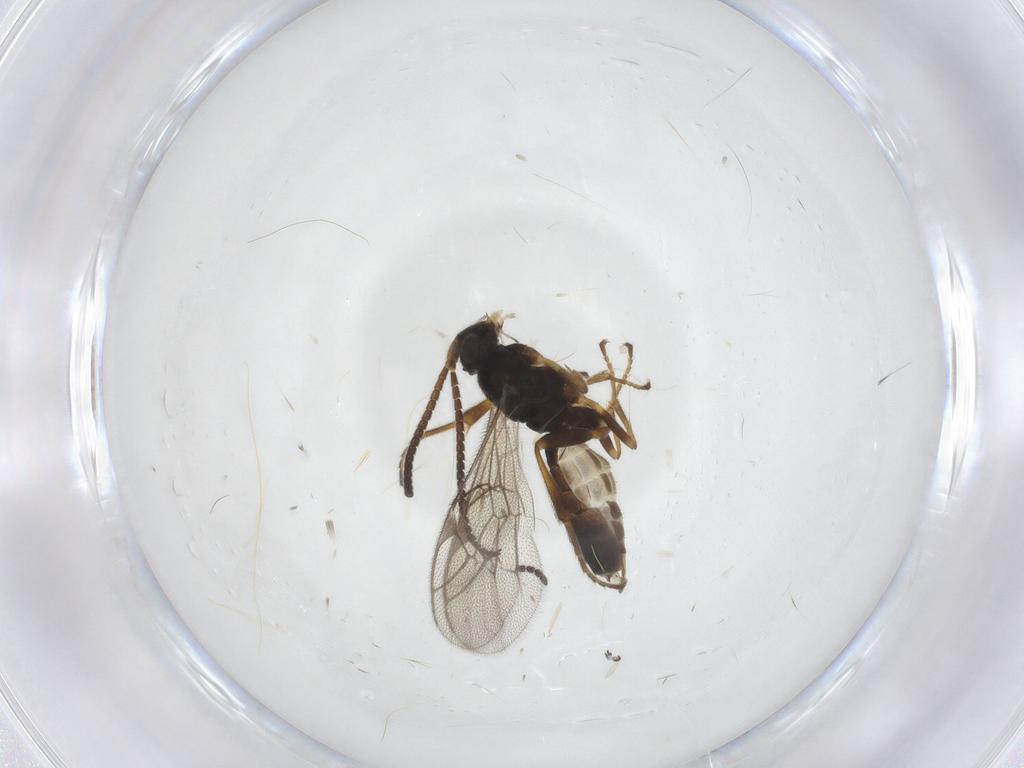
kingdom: Animalia
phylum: Arthropoda
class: Insecta
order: Hymenoptera
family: Ichneumonidae
